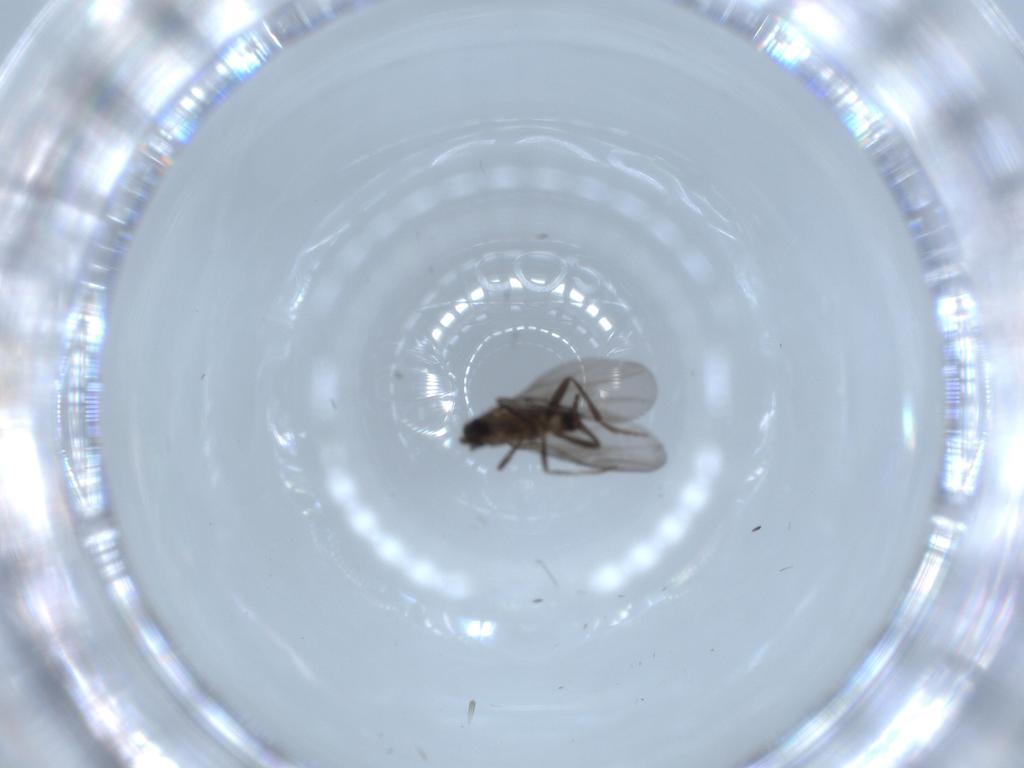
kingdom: Animalia
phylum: Arthropoda
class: Insecta
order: Diptera
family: Phoridae
